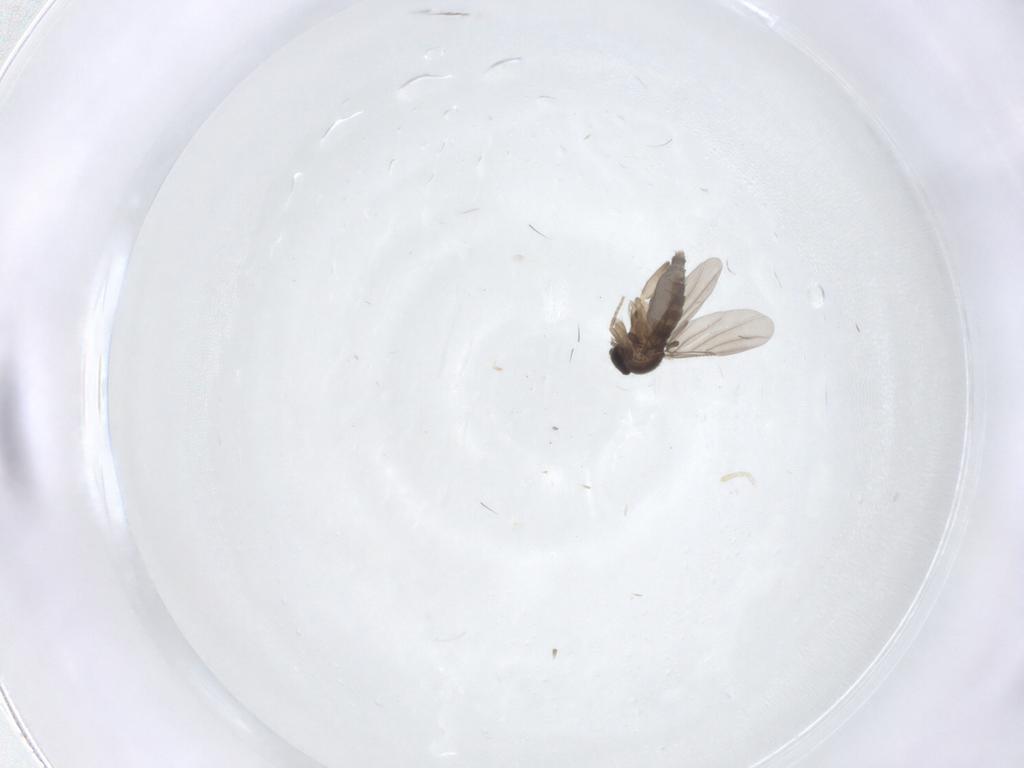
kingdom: Animalia
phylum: Arthropoda
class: Insecta
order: Diptera
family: Phoridae
